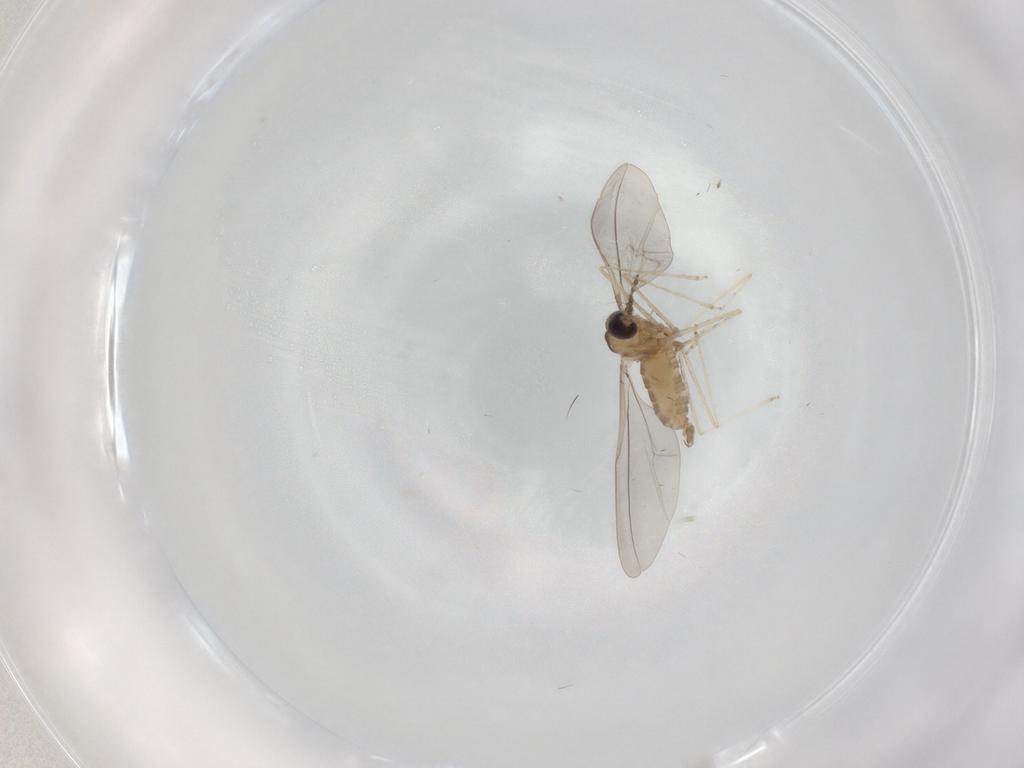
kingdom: Animalia
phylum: Arthropoda
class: Insecta
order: Diptera
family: Cecidomyiidae
